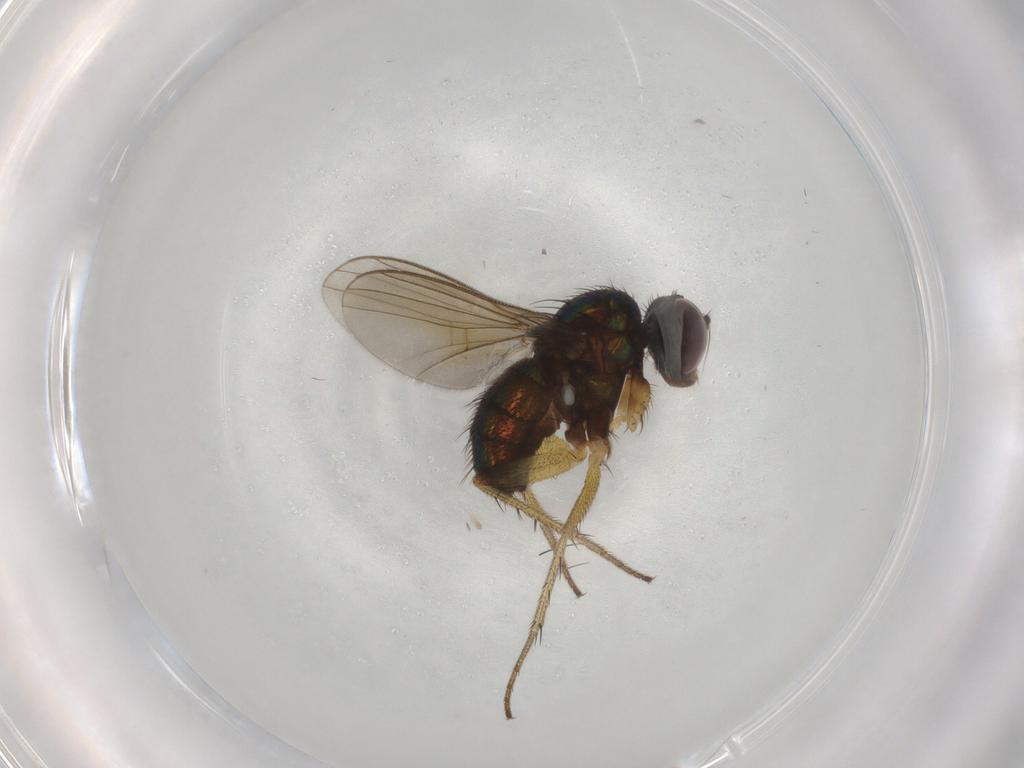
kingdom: Animalia
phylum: Arthropoda
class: Insecta
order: Diptera
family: Dolichopodidae
